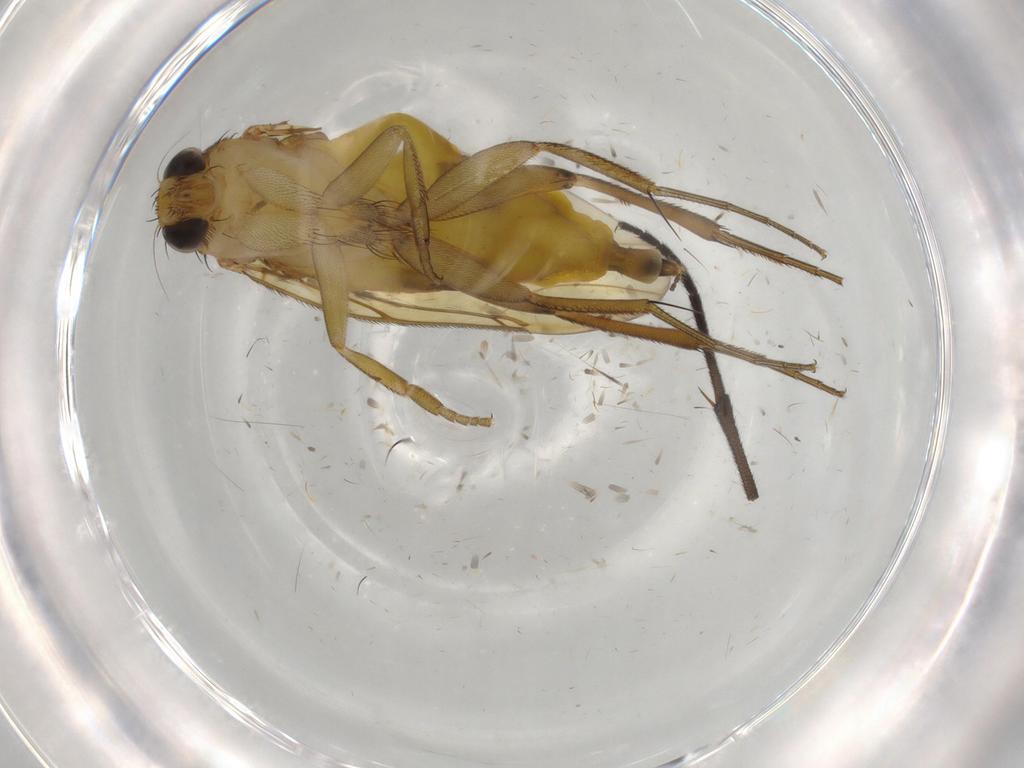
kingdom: Animalia
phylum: Arthropoda
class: Insecta
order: Diptera
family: Phoridae
